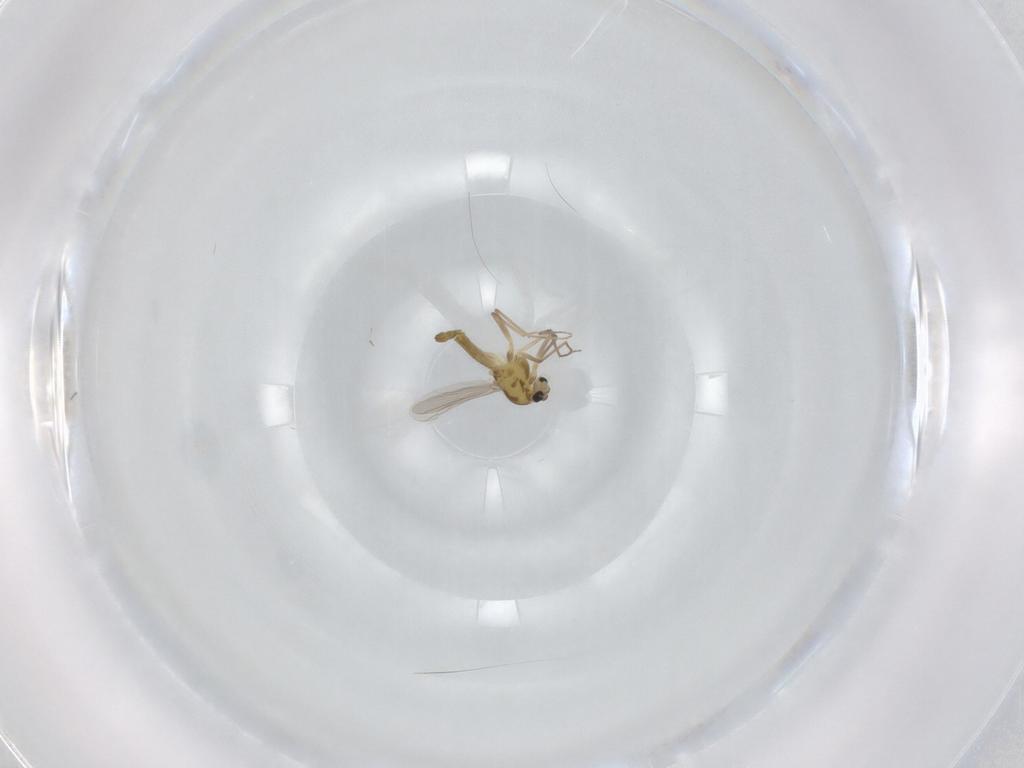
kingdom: Animalia
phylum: Arthropoda
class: Insecta
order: Diptera
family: Chironomidae
